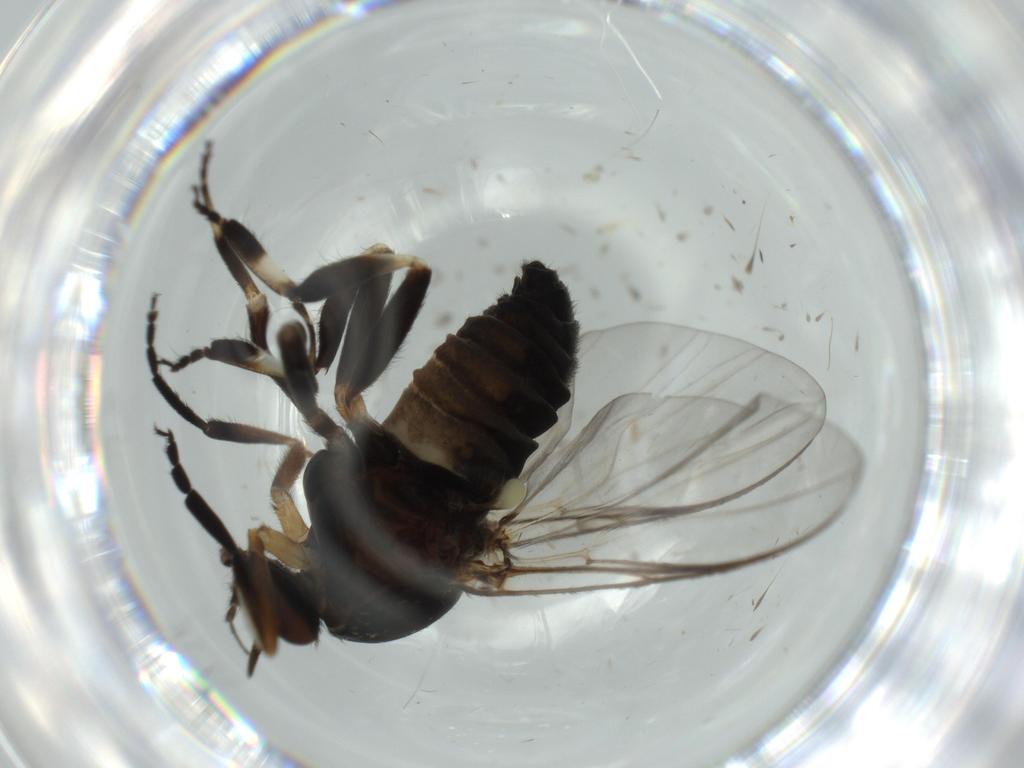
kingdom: Animalia
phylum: Arthropoda
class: Insecta
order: Diptera
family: Simuliidae
